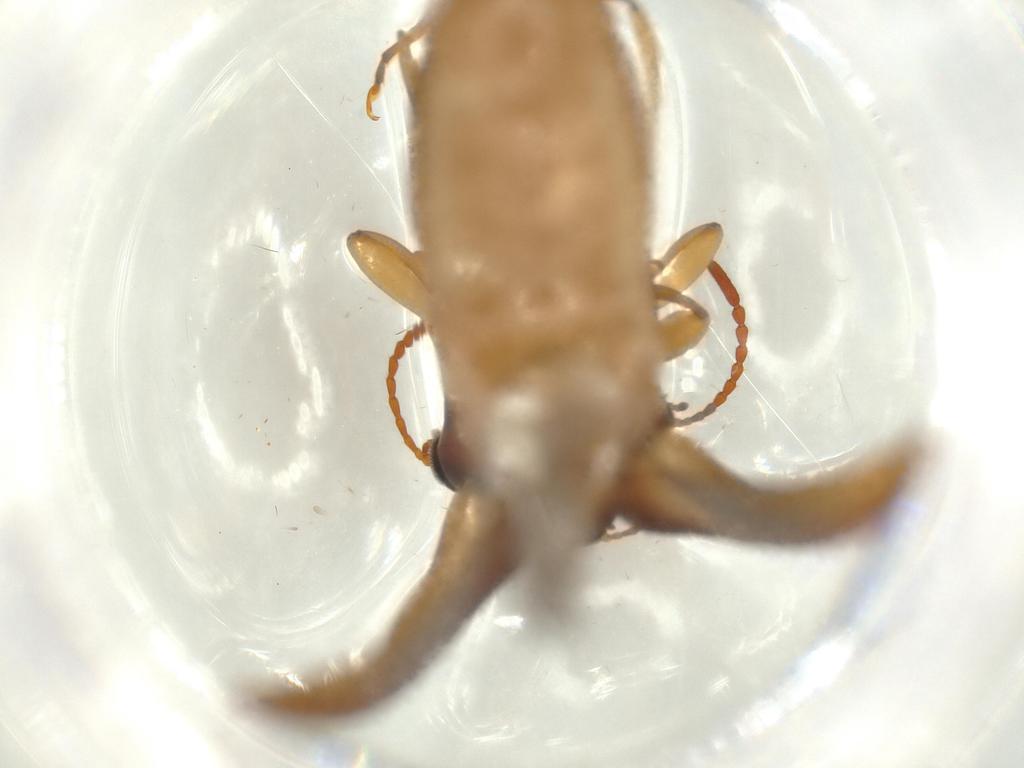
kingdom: Animalia
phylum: Arthropoda
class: Insecta
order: Coleoptera
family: Tenebrionidae
